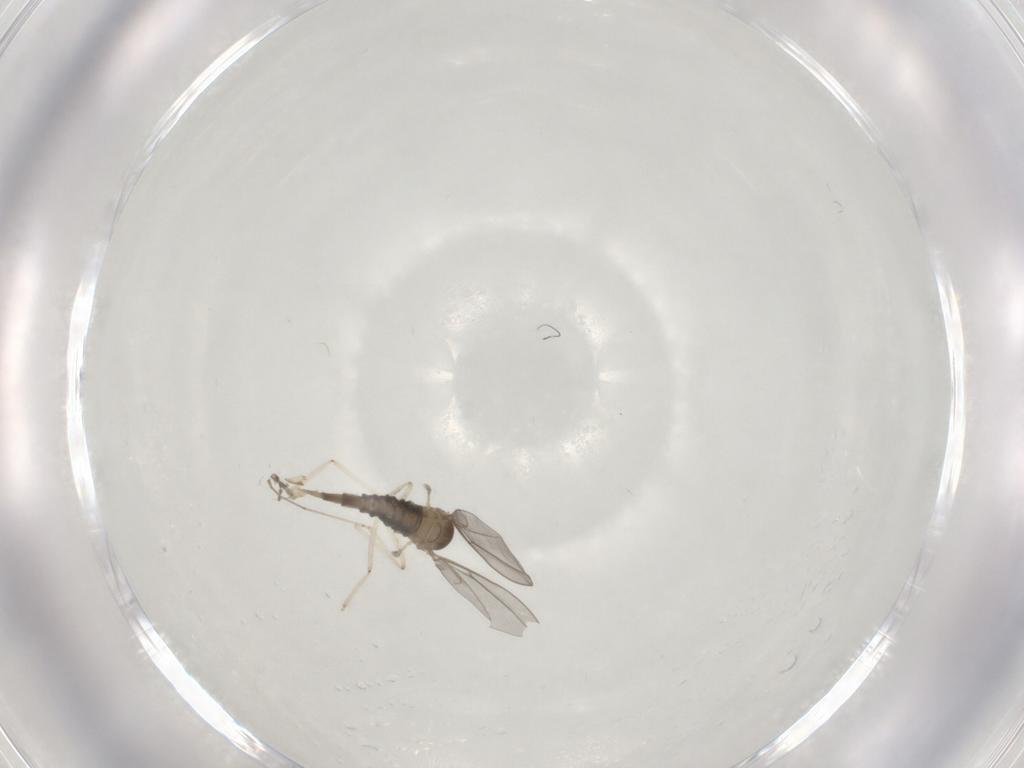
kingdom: Animalia
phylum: Arthropoda
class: Insecta
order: Diptera
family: Cecidomyiidae
